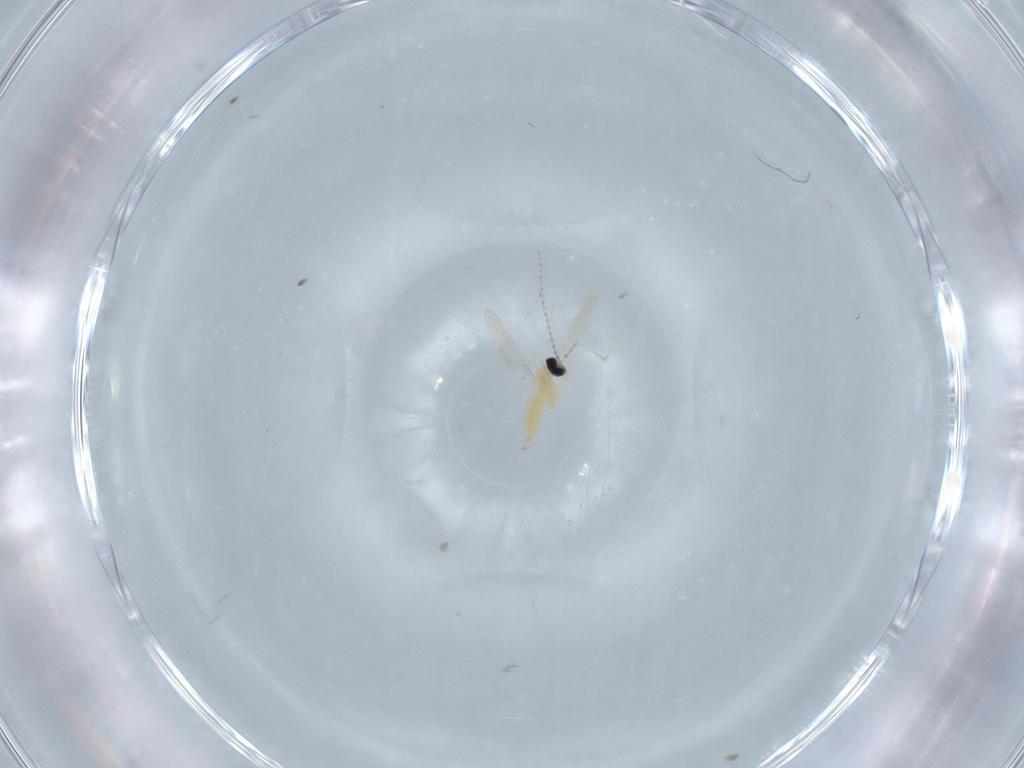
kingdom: Animalia
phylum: Arthropoda
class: Insecta
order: Diptera
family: Cecidomyiidae
